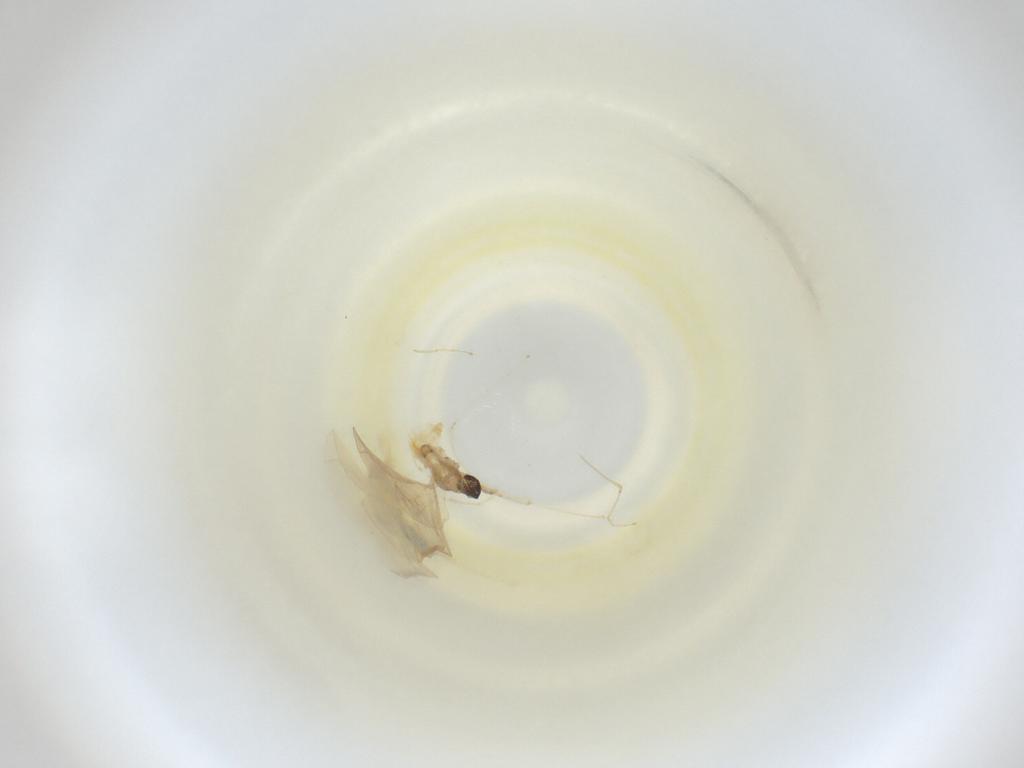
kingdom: Animalia
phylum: Arthropoda
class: Insecta
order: Diptera
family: Cecidomyiidae
